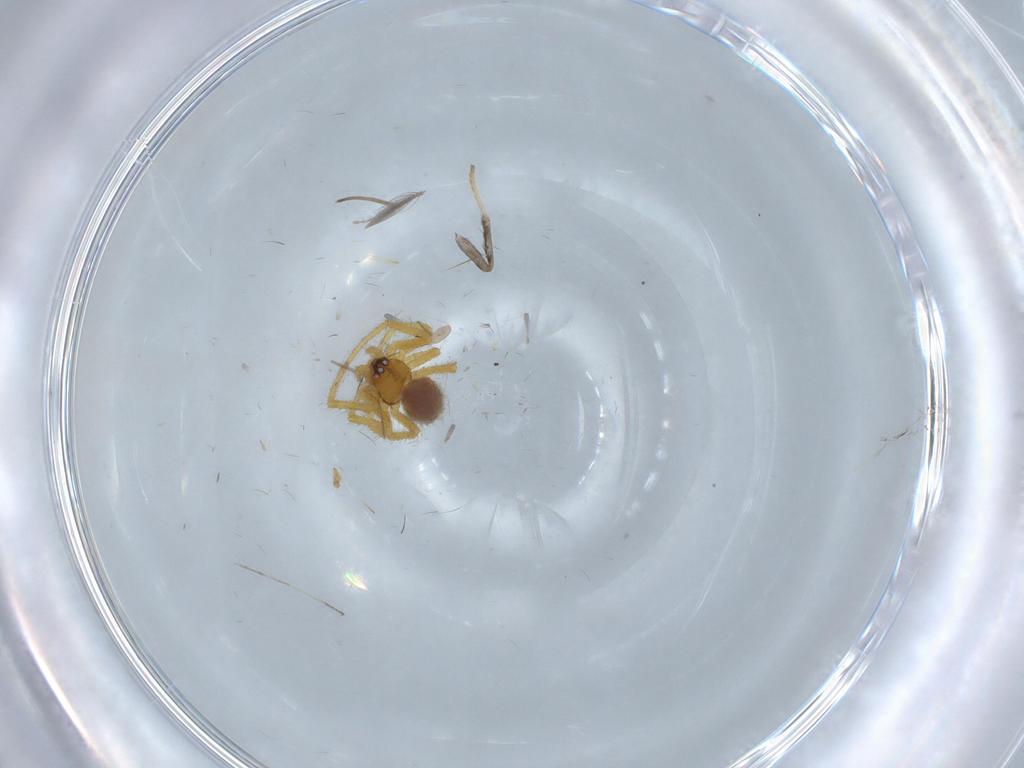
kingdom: Animalia
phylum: Arthropoda
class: Arachnida
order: Araneae
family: Theridiidae
